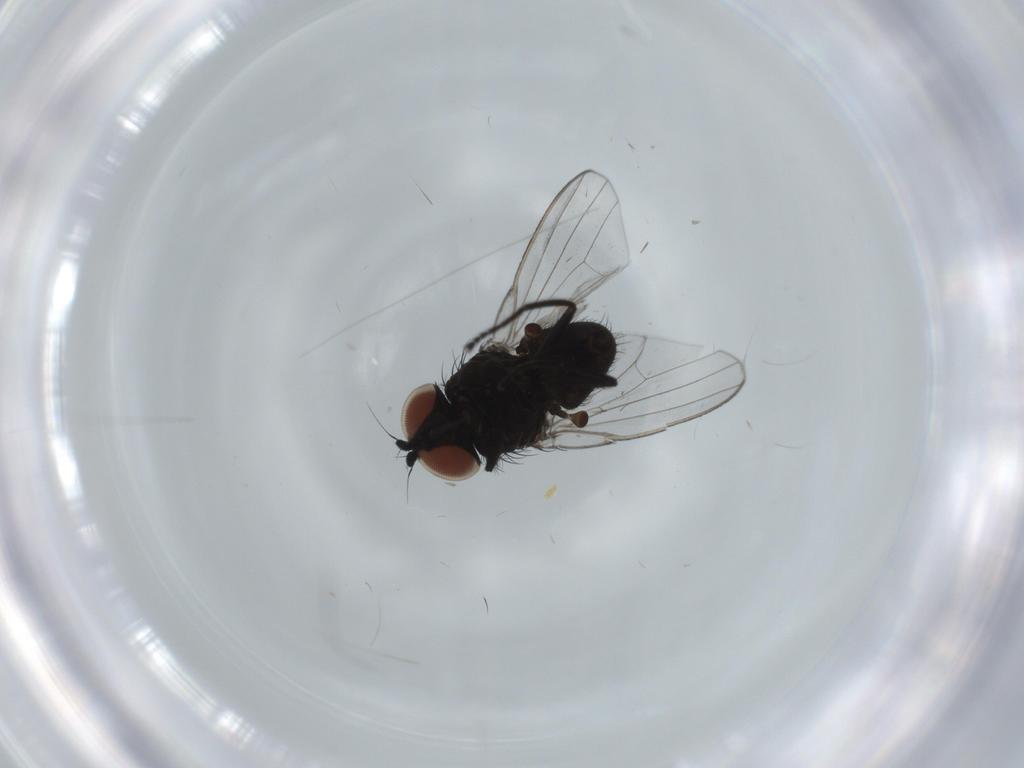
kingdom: Animalia
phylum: Arthropoda
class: Insecta
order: Diptera
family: Milichiidae
